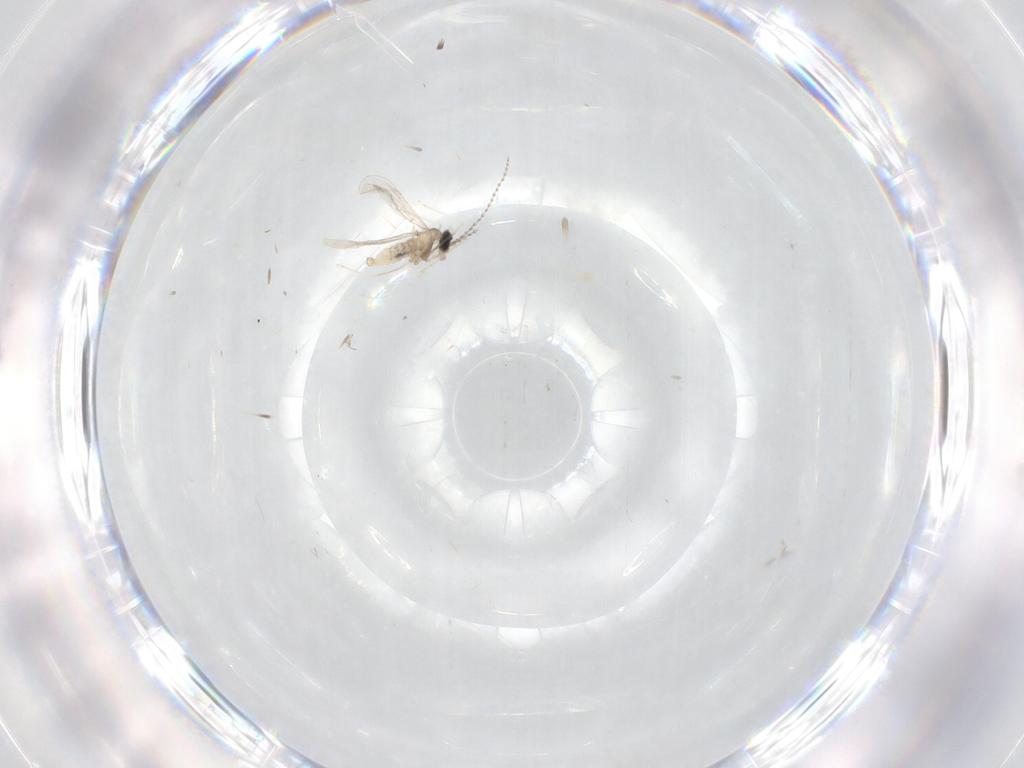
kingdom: Animalia
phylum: Arthropoda
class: Insecta
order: Diptera
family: Cecidomyiidae
